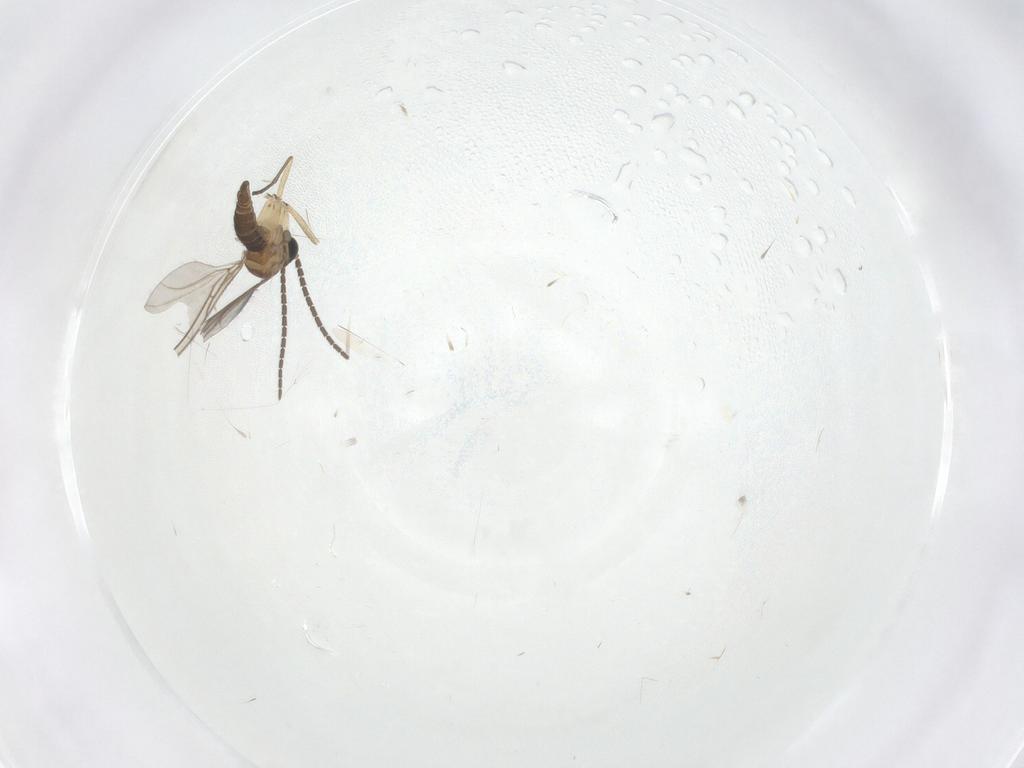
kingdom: Animalia
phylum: Arthropoda
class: Insecta
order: Diptera
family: Sciaridae
